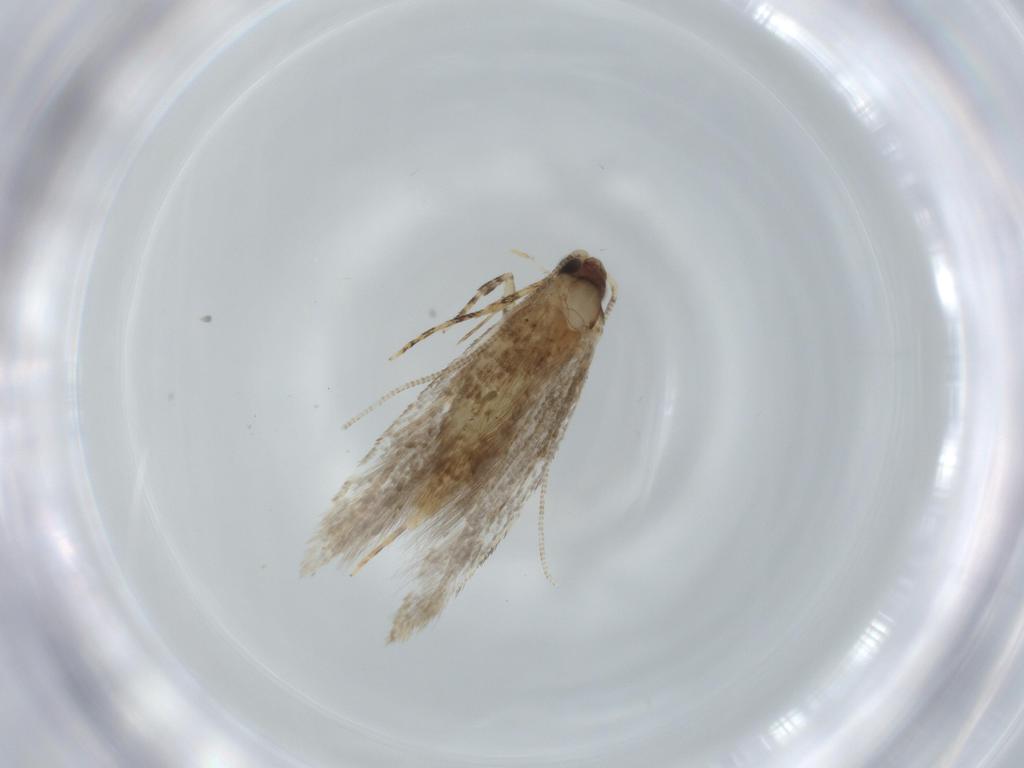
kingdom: Animalia
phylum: Arthropoda
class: Insecta
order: Lepidoptera
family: Tineidae
